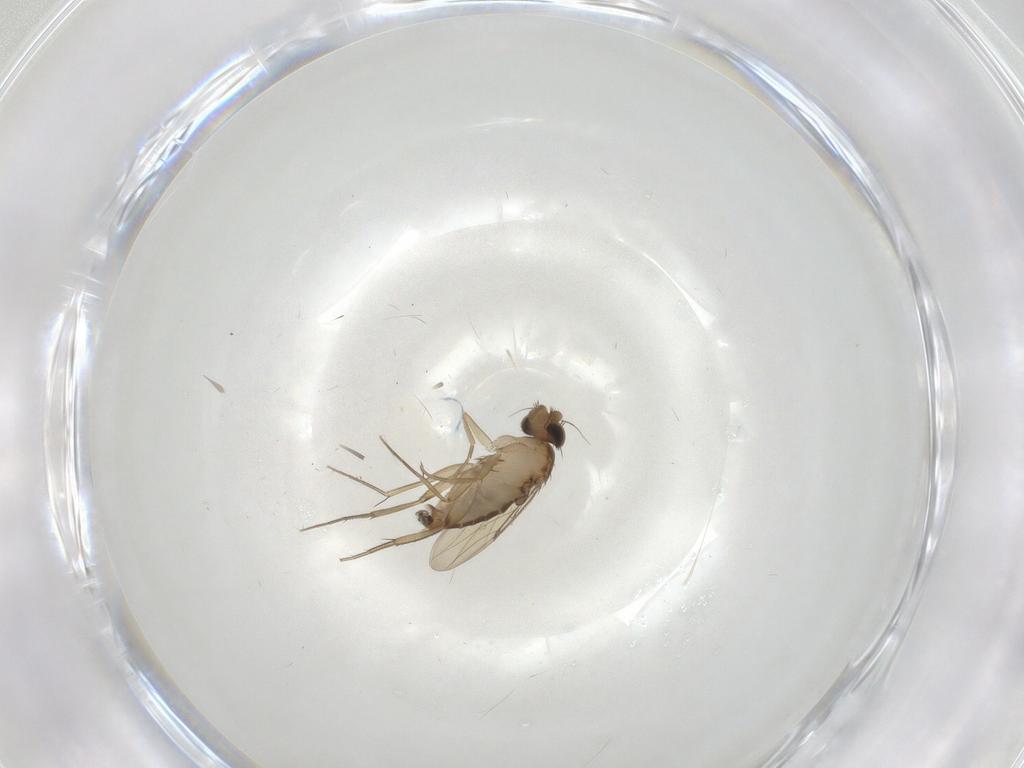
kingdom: Animalia
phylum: Arthropoda
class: Insecta
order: Diptera
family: Phoridae
